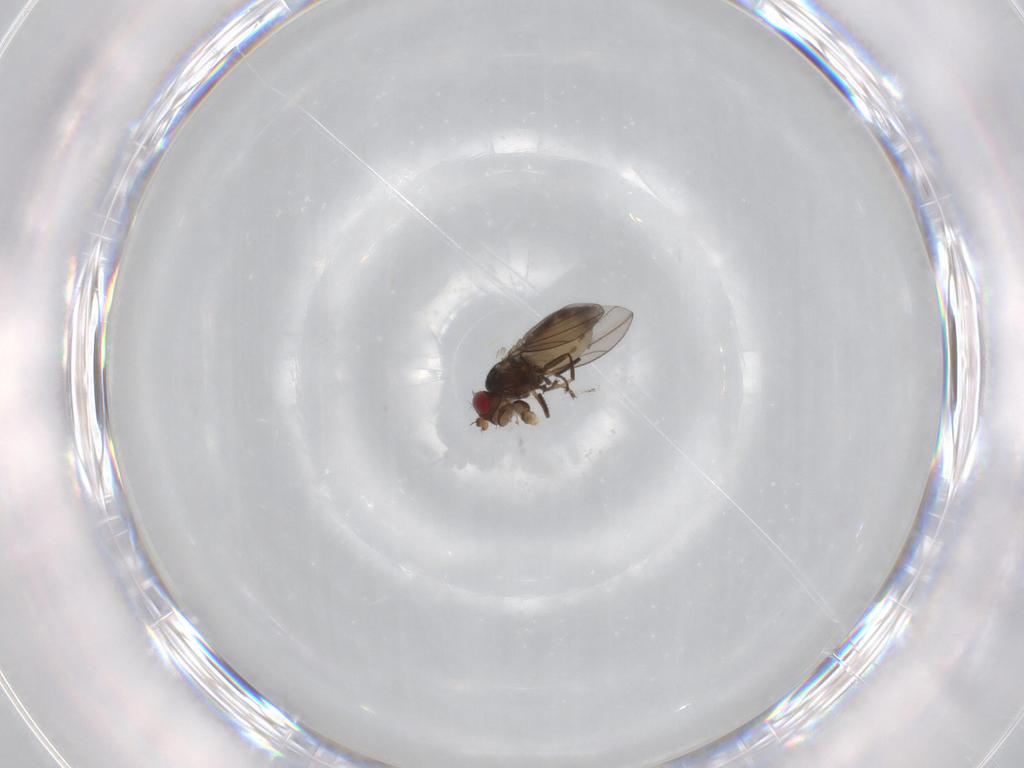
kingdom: Animalia
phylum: Arthropoda
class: Insecta
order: Diptera
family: Ephydridae
